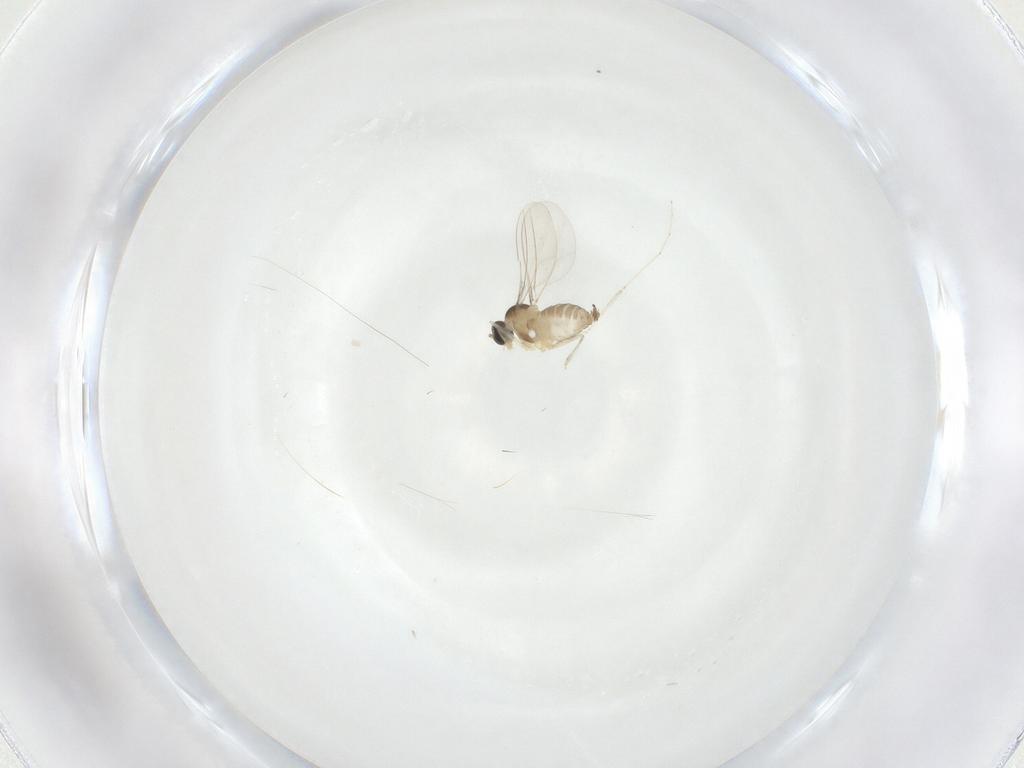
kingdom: Animalia
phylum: Arthropoda
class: Insecta
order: Diptera
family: Cecidomyiidae
